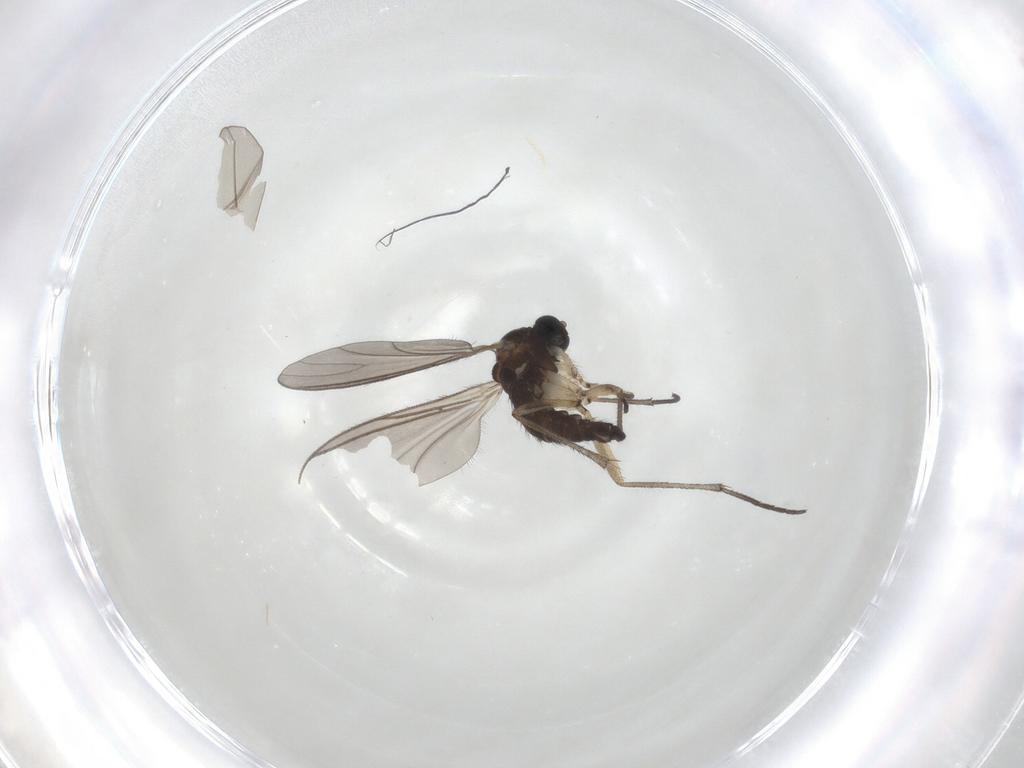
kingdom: Animalia
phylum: Arthropoda
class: Insecta
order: Diptera
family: Sciaridae
